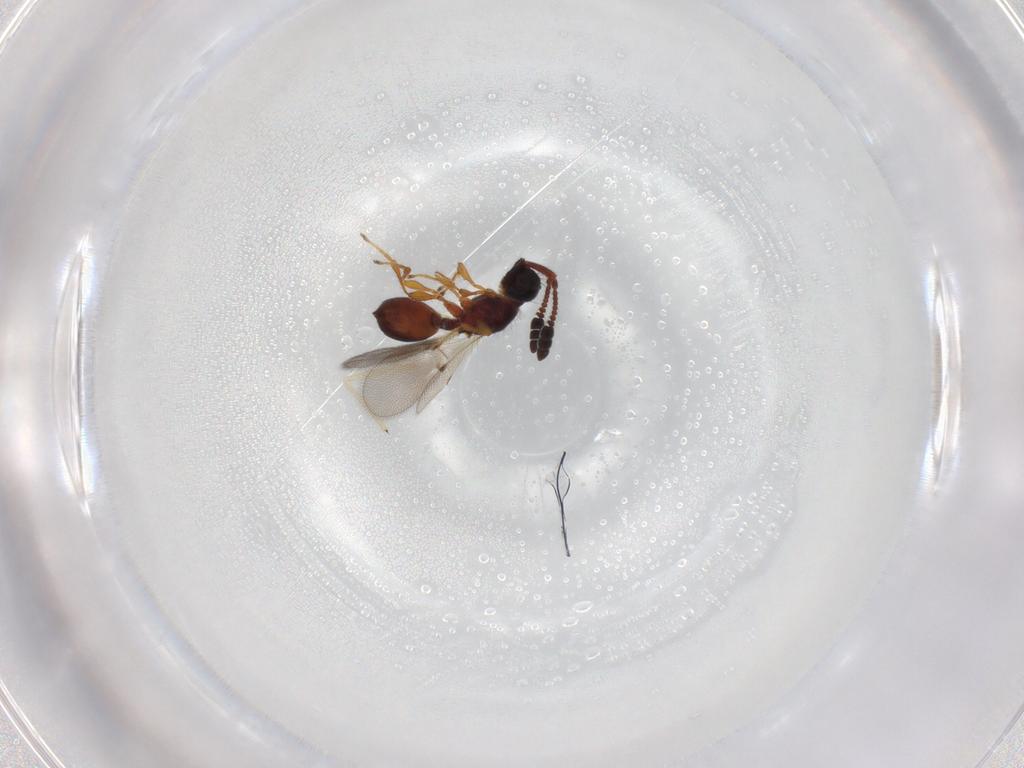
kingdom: Animalia
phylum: Arthropoda
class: Insecta
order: Hymenoptera
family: Diapriidae
